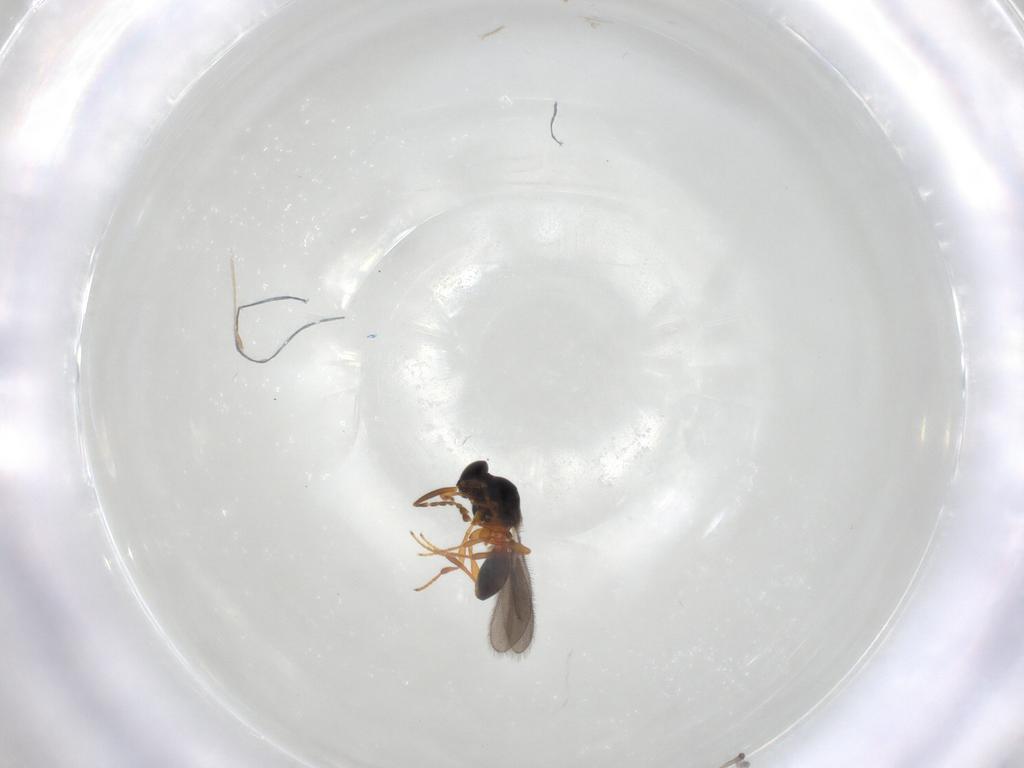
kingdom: Animalia
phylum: Arthropoda
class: Insecta
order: Hymenoptera
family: Platygastridae
